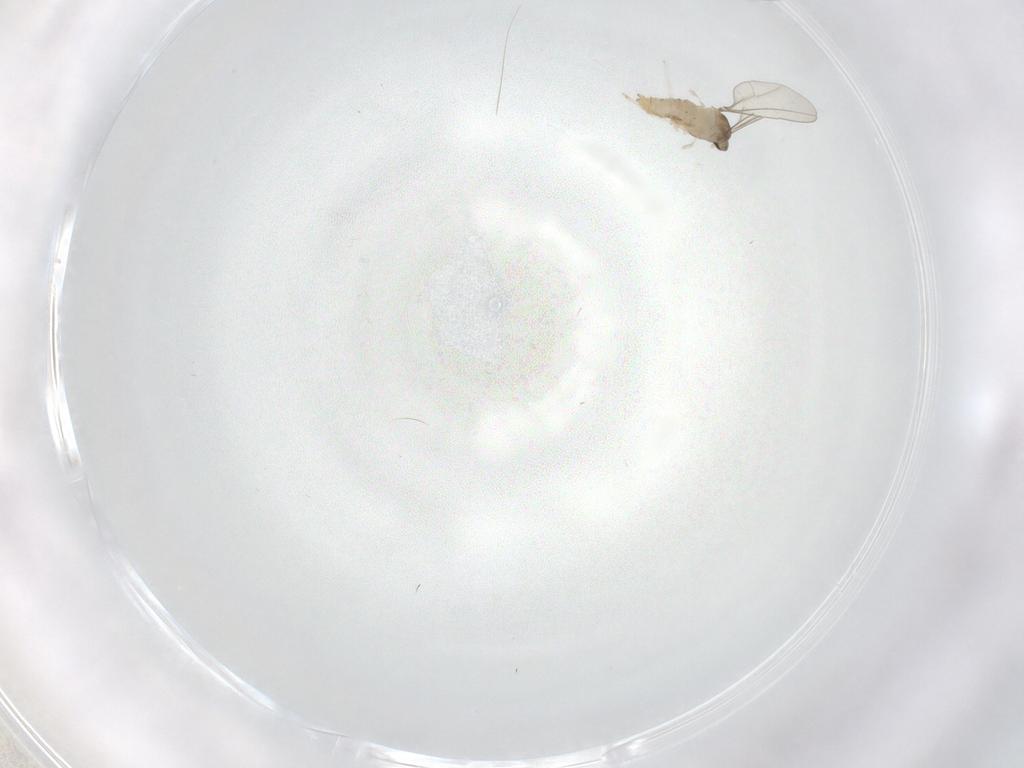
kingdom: Animalia
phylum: Arthropoda
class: Insecta
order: Diptera
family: Cecidomyiidae
